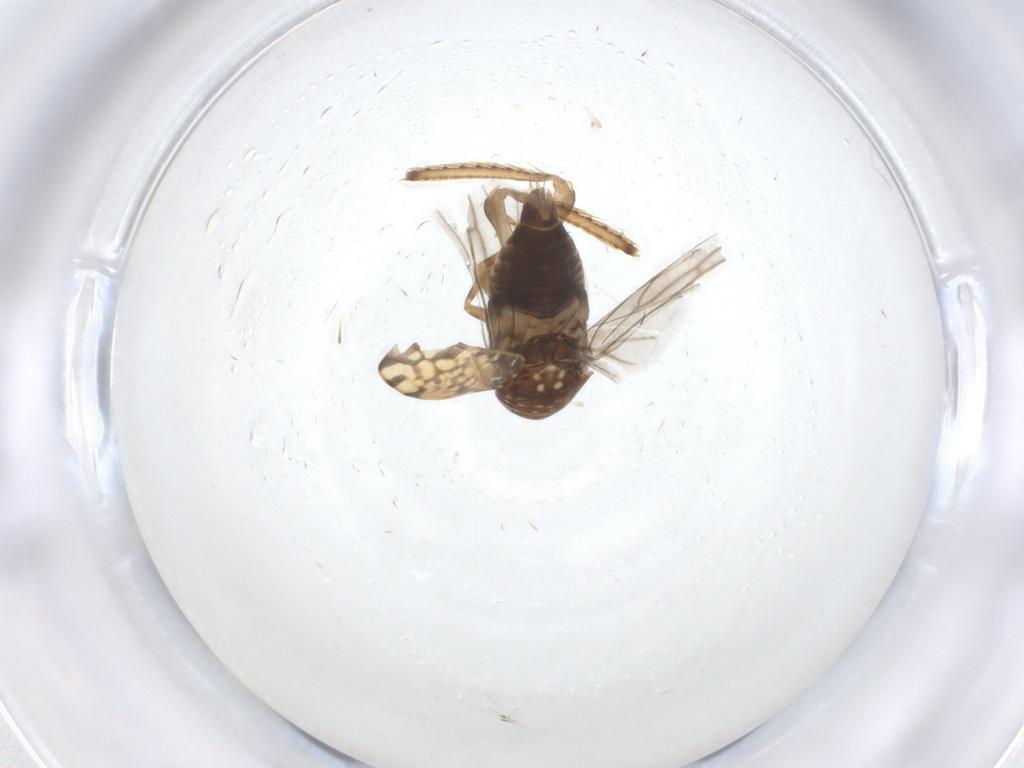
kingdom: Animalia
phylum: Arthropoda
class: Insecta
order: Hemiptera
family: Cicadellidae
